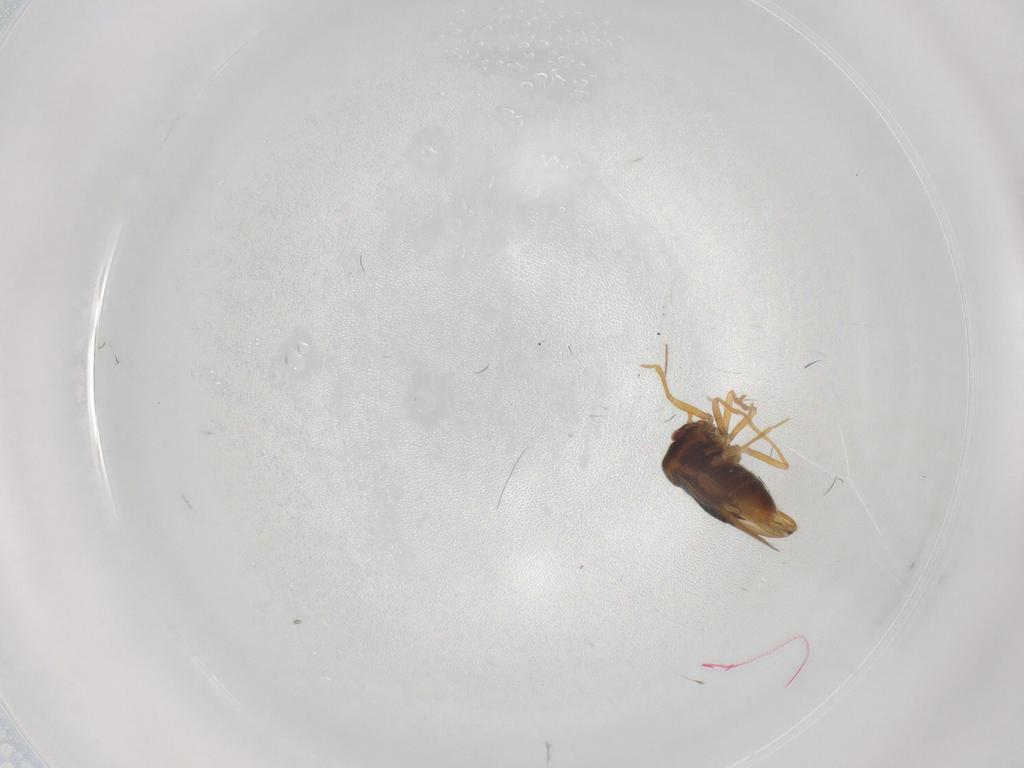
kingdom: Animalia
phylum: Arthropoda
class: Insecta
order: Hemiptera
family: Schizopteridae
